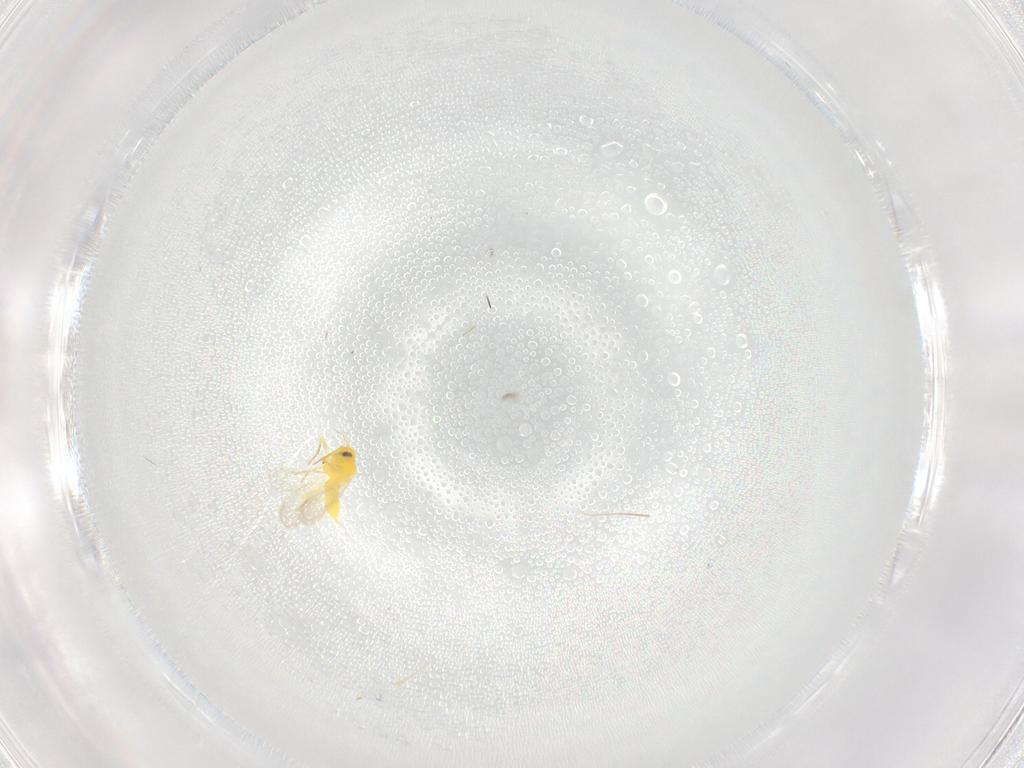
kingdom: Animalia
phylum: Arthropoda
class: Insecta
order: Hemiptera
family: Aleyrodidae
